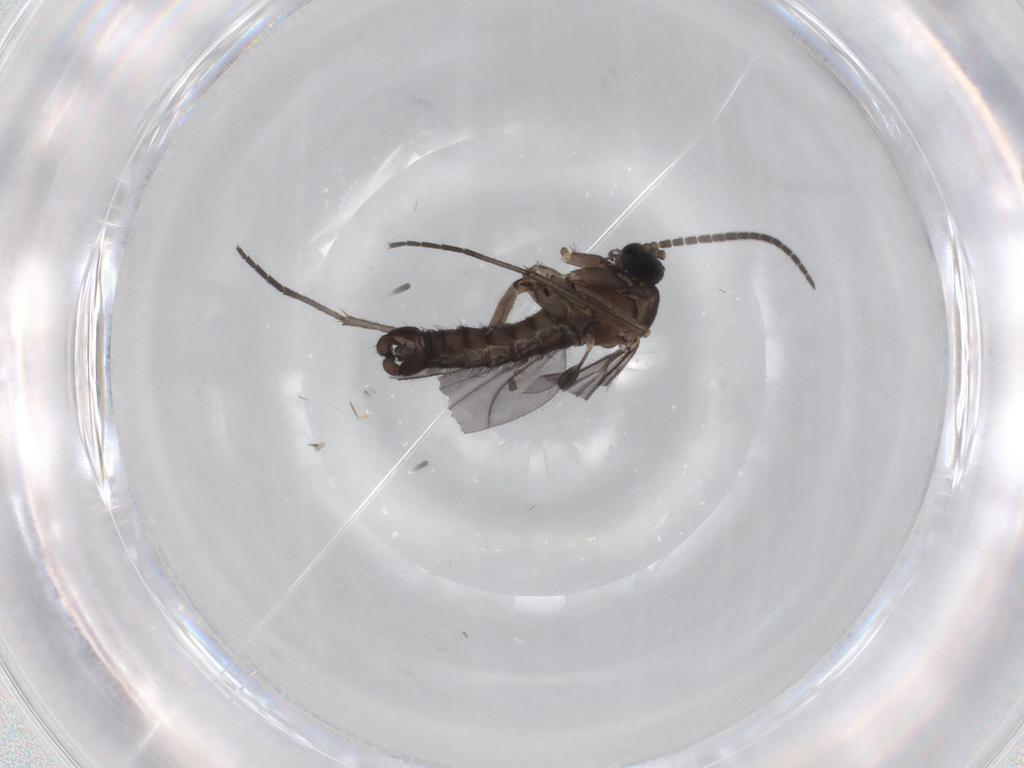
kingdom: Animalia
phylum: Arthropoda
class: Insecta
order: Diptera
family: Sciaridae
